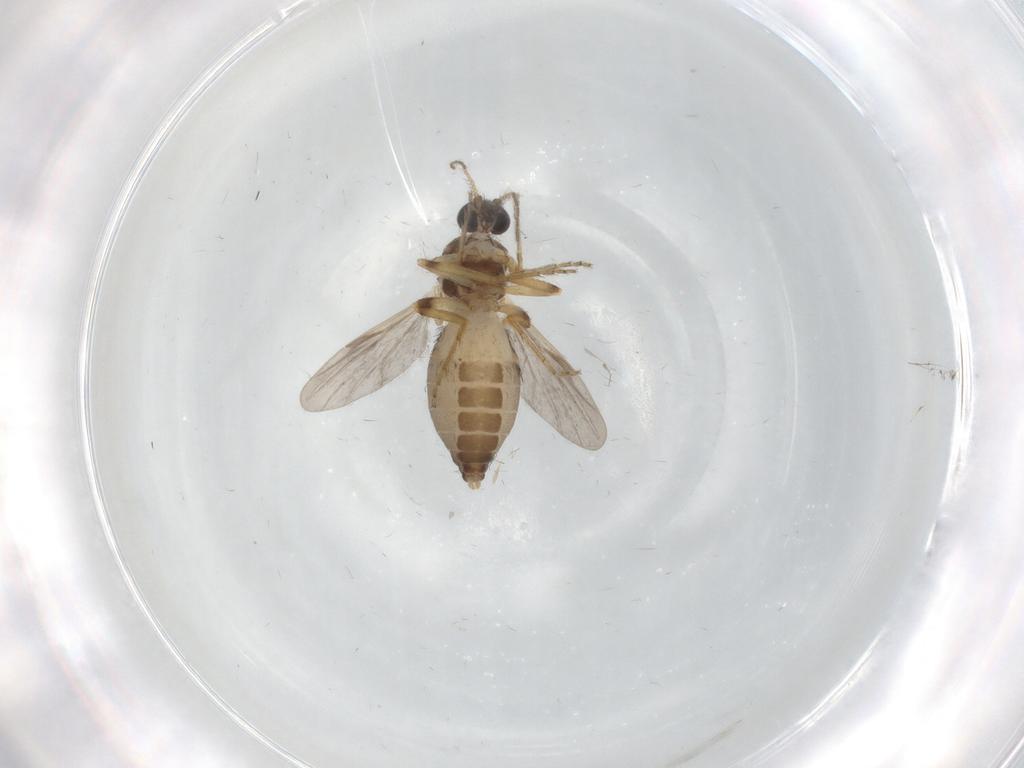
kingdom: Animalia
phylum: Arthropoda
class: Insecta
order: Diptera
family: Ceratopogonidae
